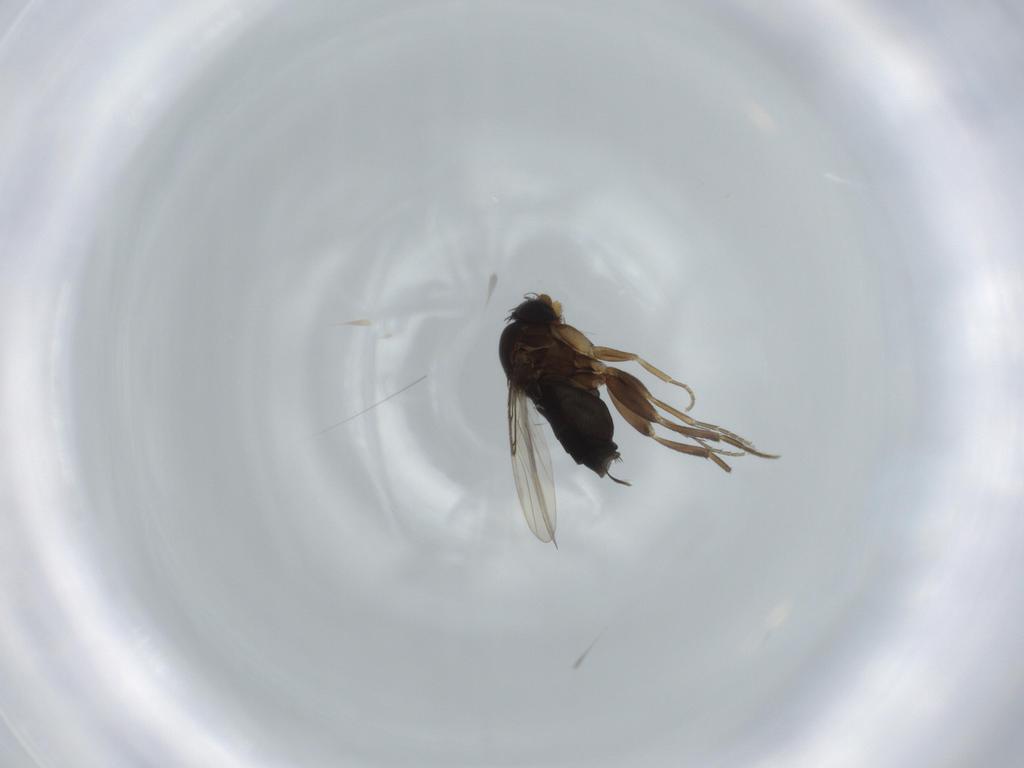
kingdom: Animalia
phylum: Arthropoda
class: Insecta
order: Diptera
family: Phoridae
